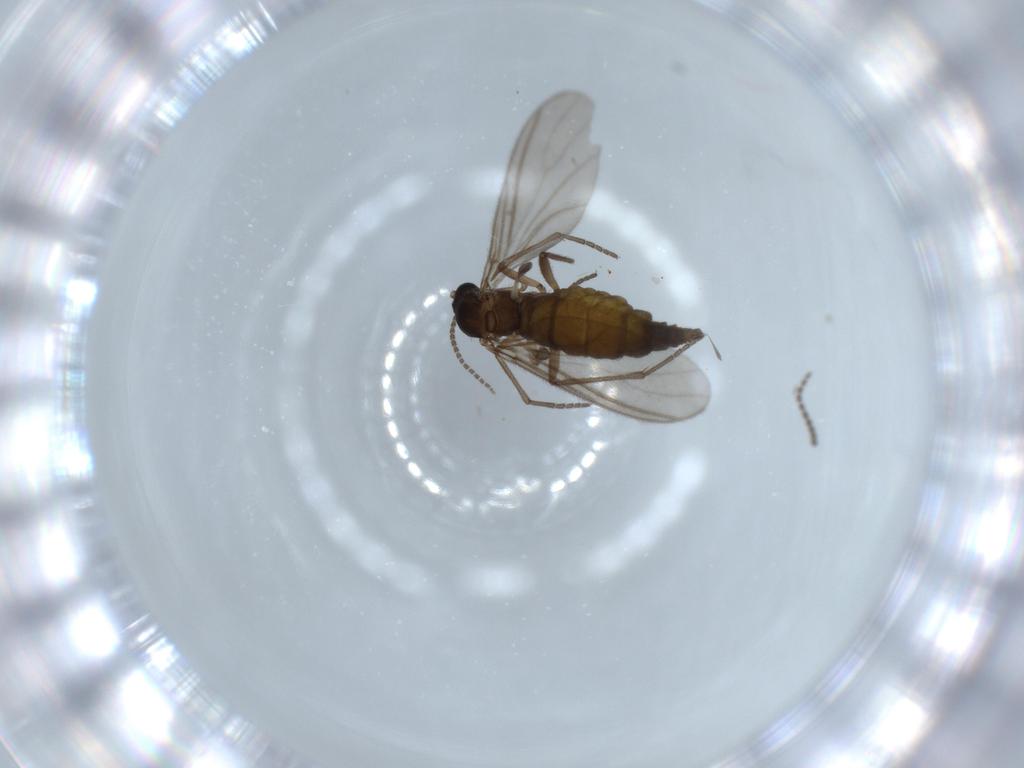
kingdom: Animalia
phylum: Arthropoda
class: Insecta
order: Diptera
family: Sciaridae
